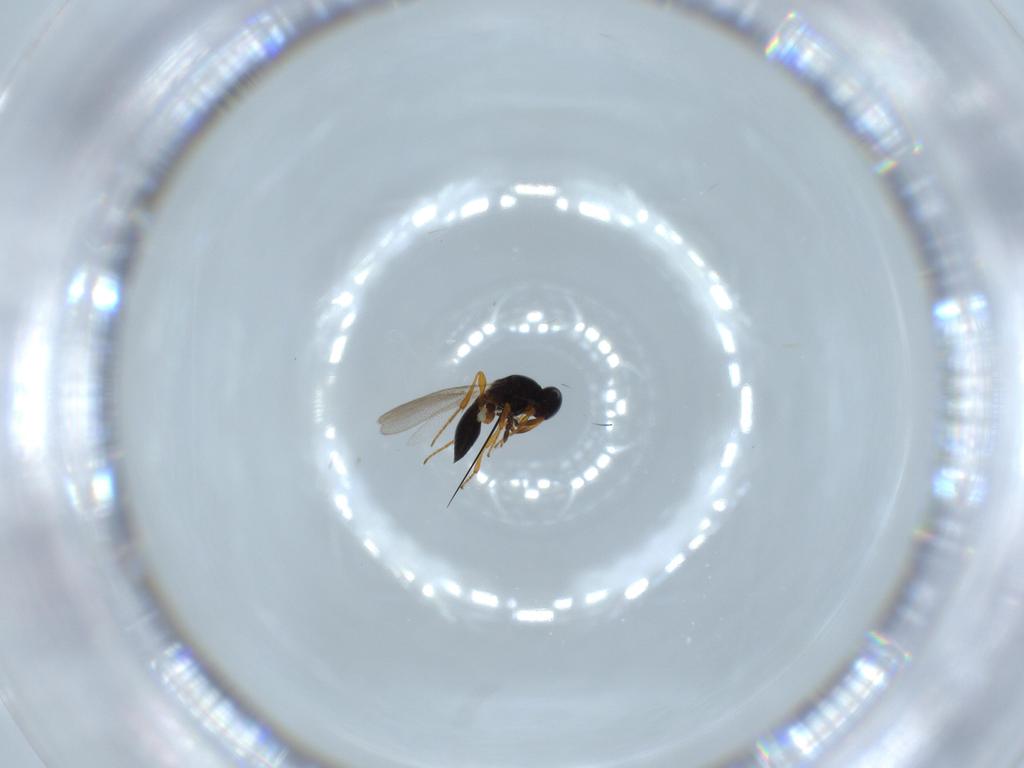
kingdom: Animalia
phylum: Arthropoda
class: Insecta
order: Hymenoptera
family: Platygastridae
